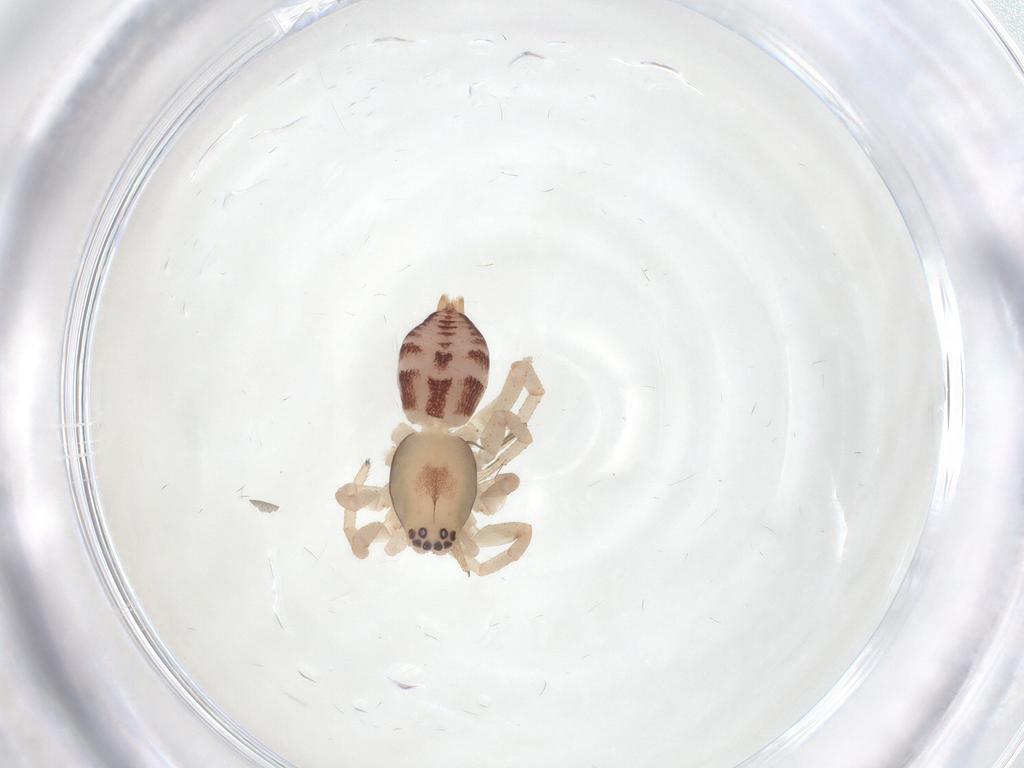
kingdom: Animalia
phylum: Arthropoda
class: Arachnida
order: Araneae
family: Clubionidae
